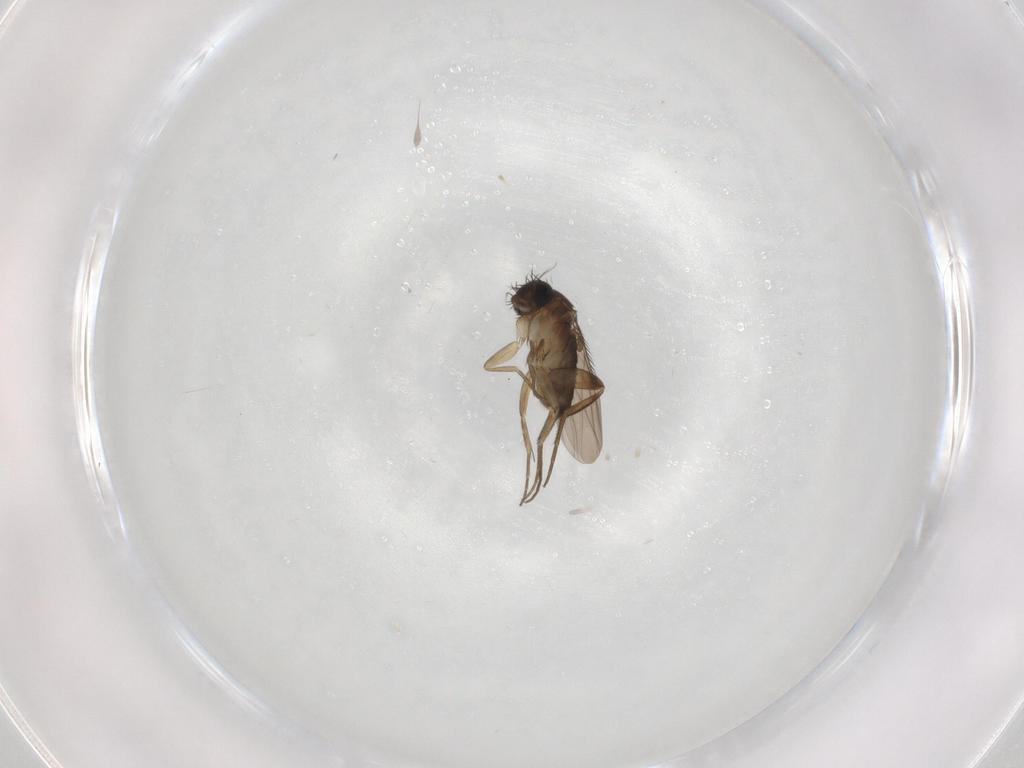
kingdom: Animalia
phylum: Arthropoda
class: Insecta
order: Diptera
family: Phoridae
